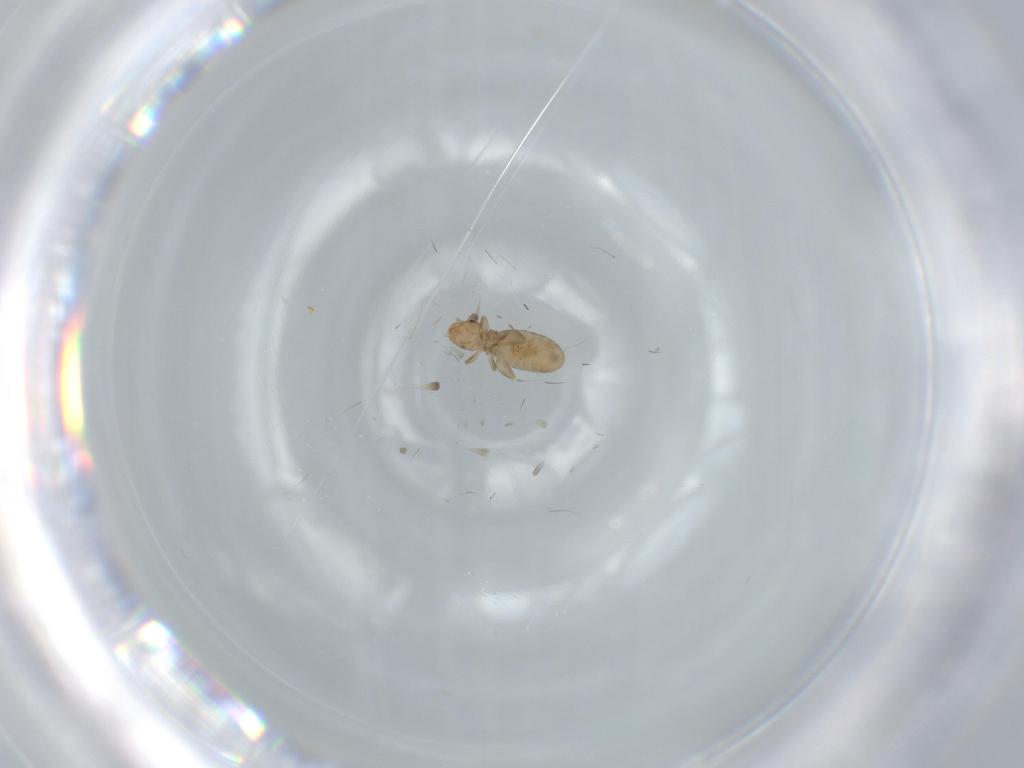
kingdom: Animalia
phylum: Arthropoda
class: Insecta
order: Psocodea
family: Liposcelididae
